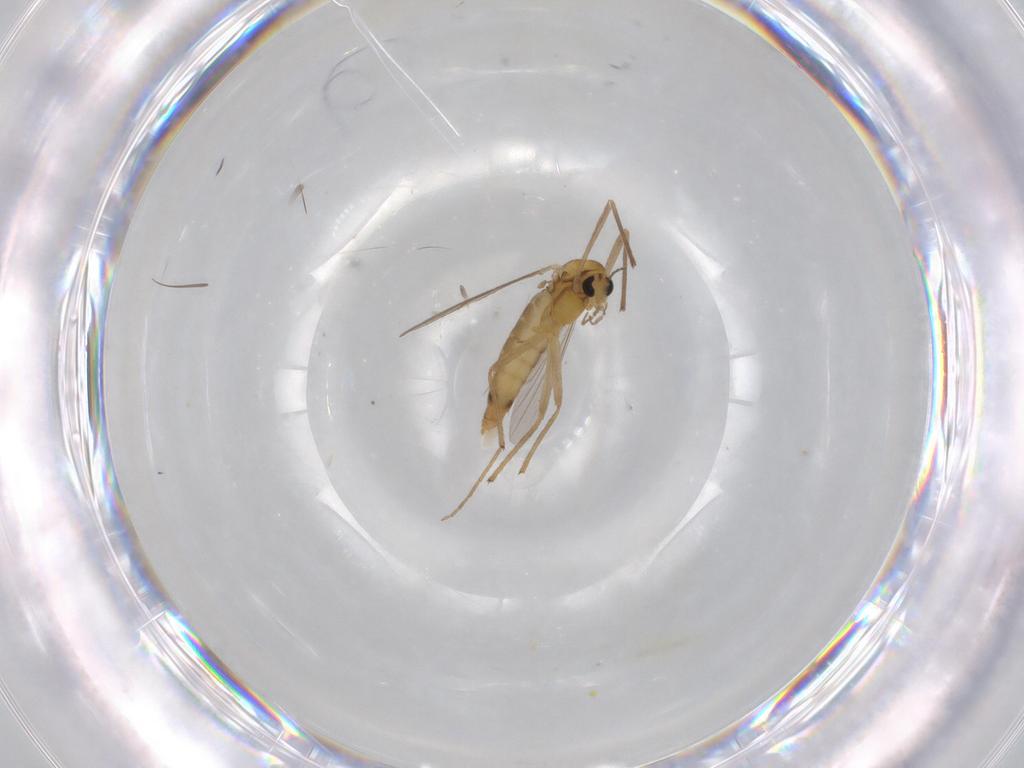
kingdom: Animalia
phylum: Arthropoda
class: Insecta
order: Diptera
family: Chironomidae
